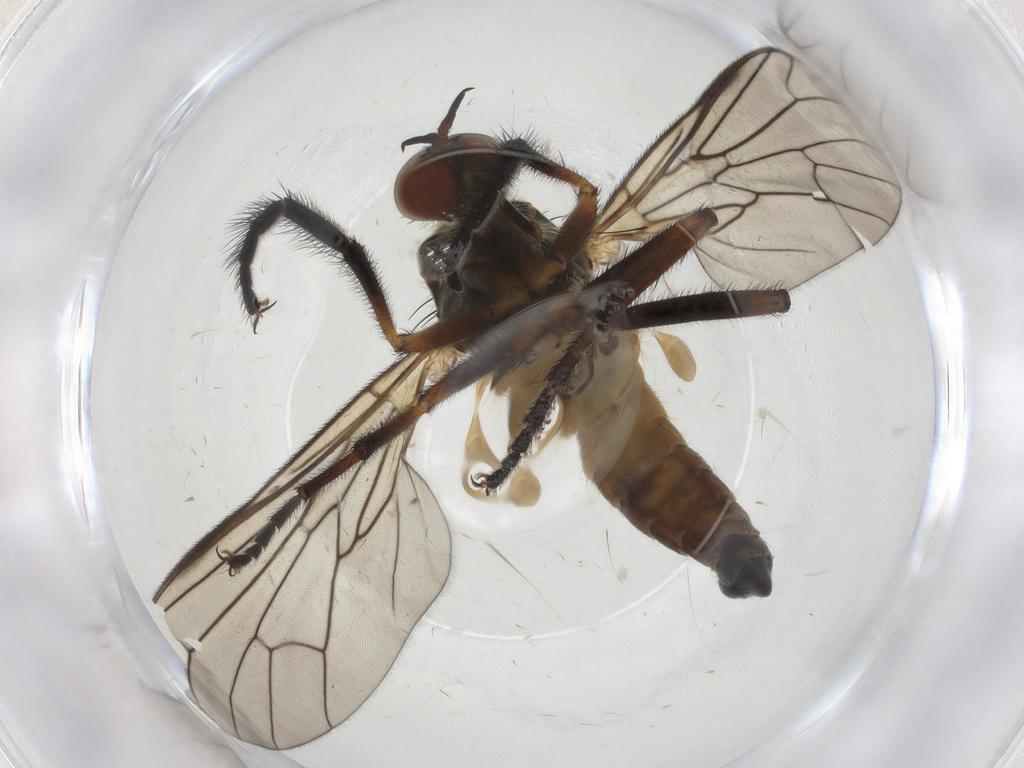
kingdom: Animalia
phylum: Arthropoda
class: Insecta
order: Diptera
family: Empididae
